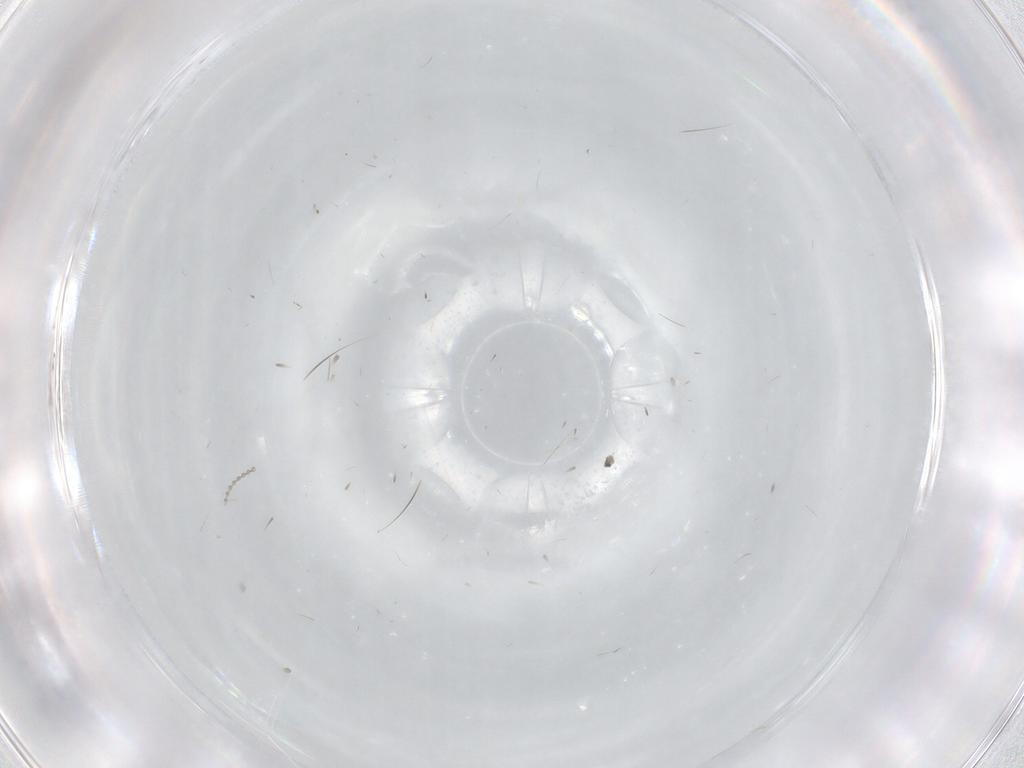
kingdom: Animalia
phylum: Arthropoda
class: Insecta
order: Diptera
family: Cecidomyiidae
